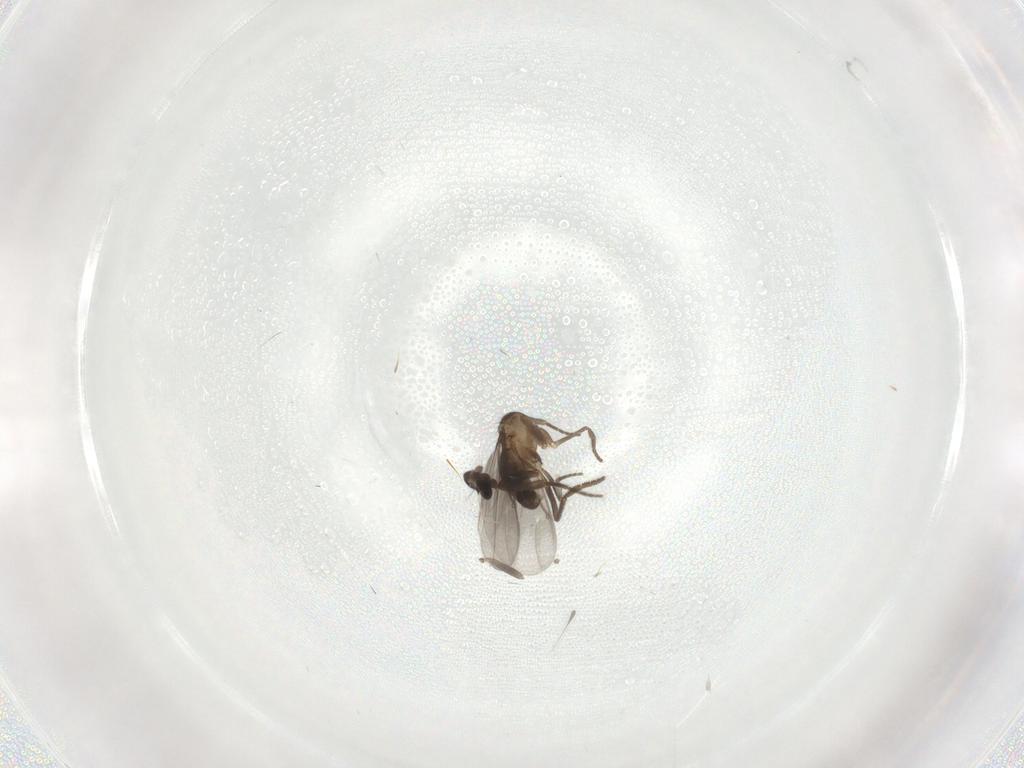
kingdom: Animalia
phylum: Arthropoda
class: Insecta
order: Diptera
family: Phoridae
